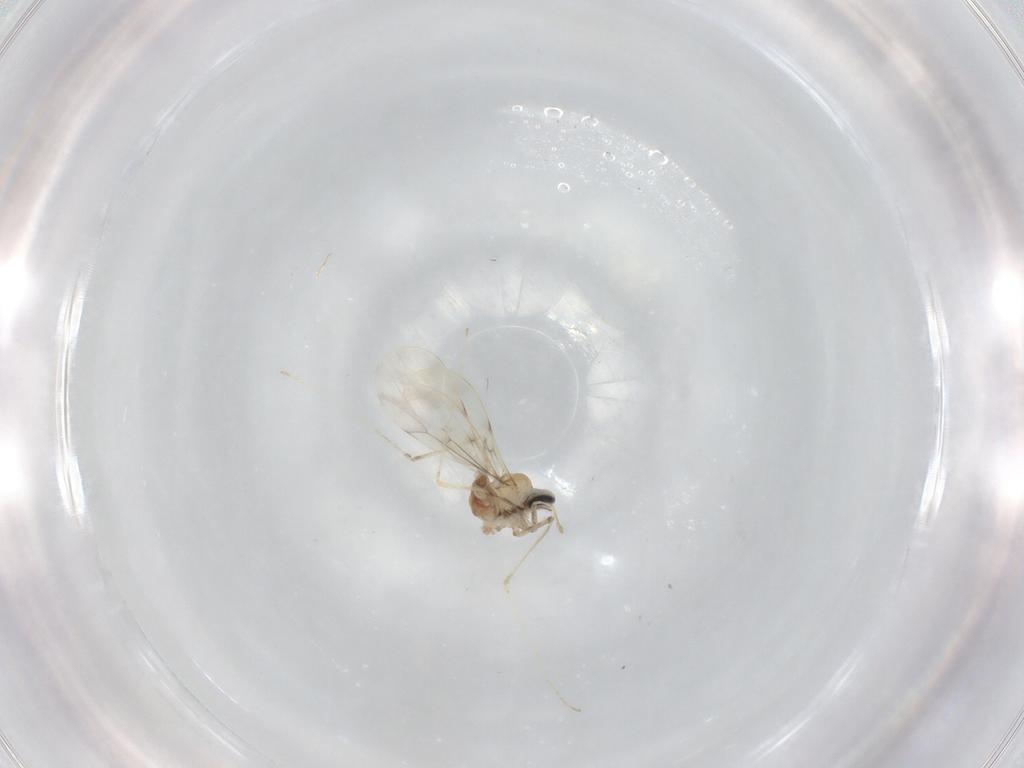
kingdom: Animalia
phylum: Arthropoda
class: Insecta
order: Diptera
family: Cecidomyiidae
